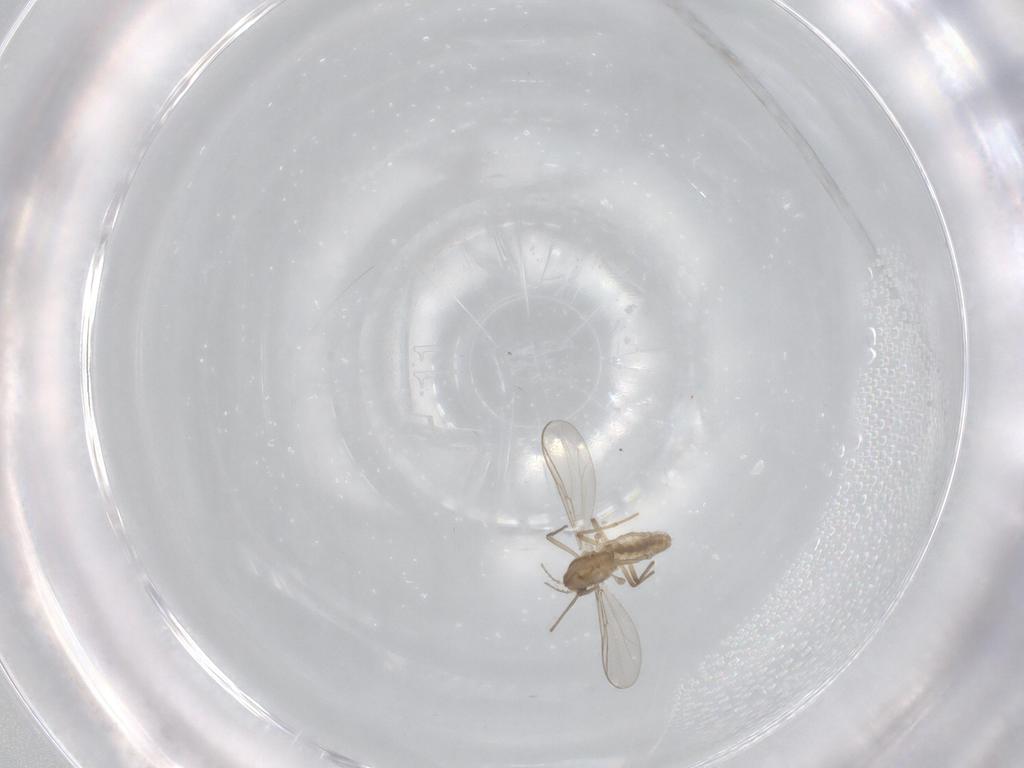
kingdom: Animalia
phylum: Arthropoda
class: Insecta
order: Diptera
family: Chironomidae
